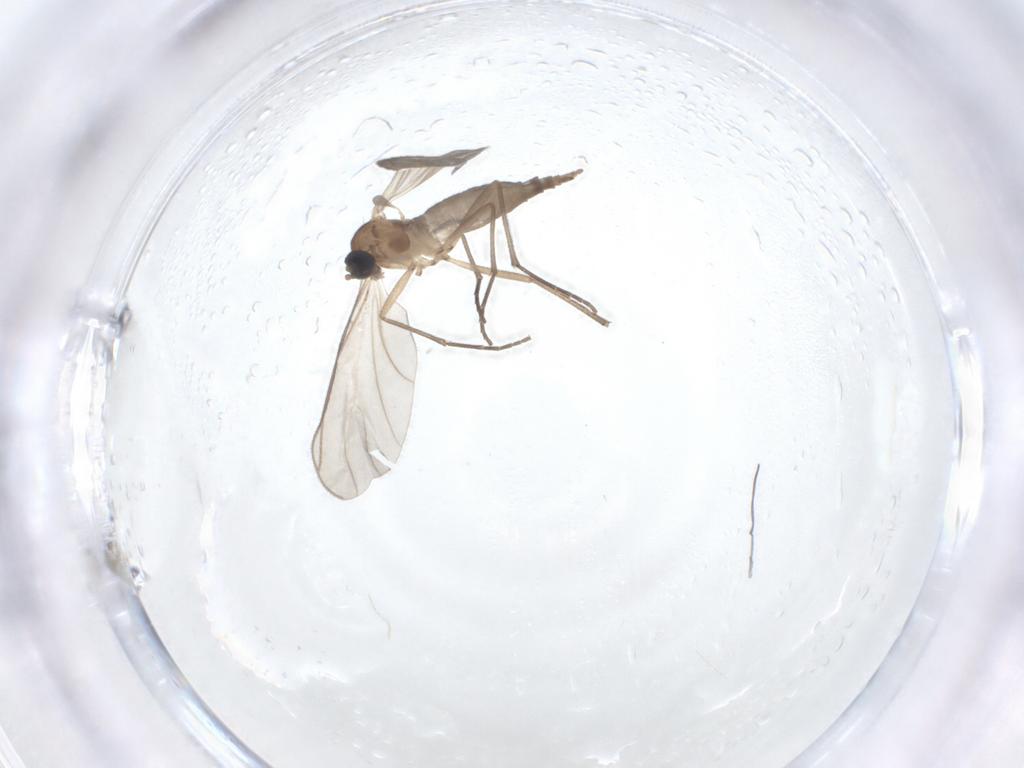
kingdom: Animalia
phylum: Arthropoda
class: Insecta
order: Diptera
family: Sciaridae
